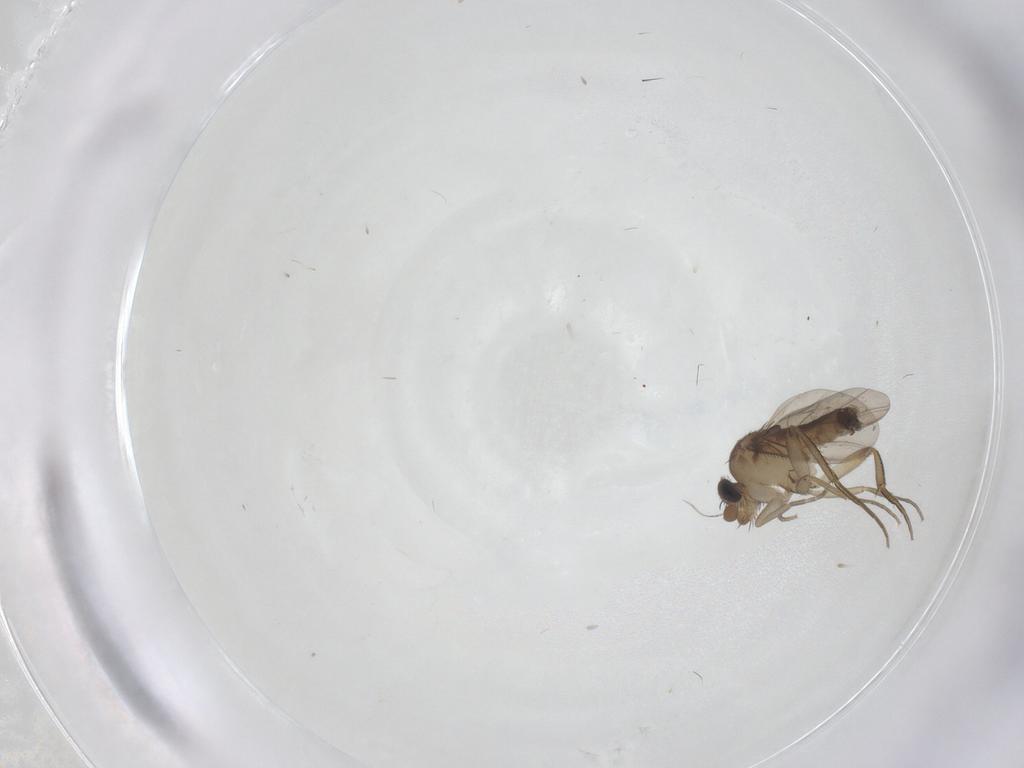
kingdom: Animalia
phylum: Arthropoda
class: Insecta
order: Diptera
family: Phoridae
